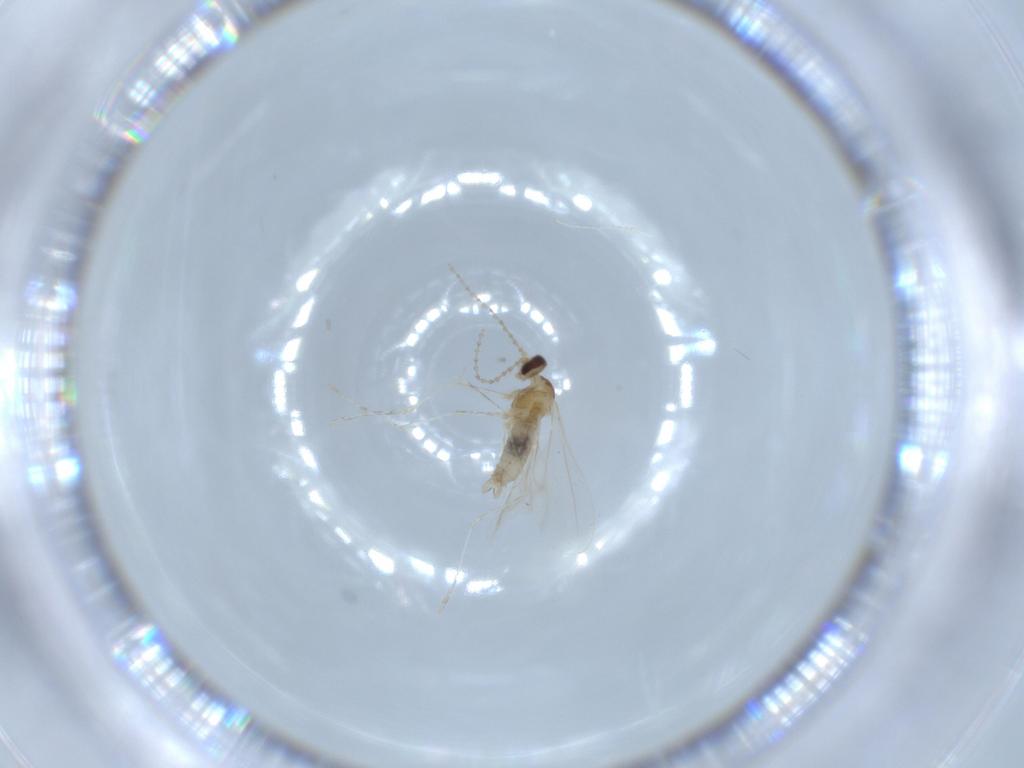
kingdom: Animalia
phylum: Arthropoda
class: Insecta
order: Diptera
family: Cecidomyiidae
